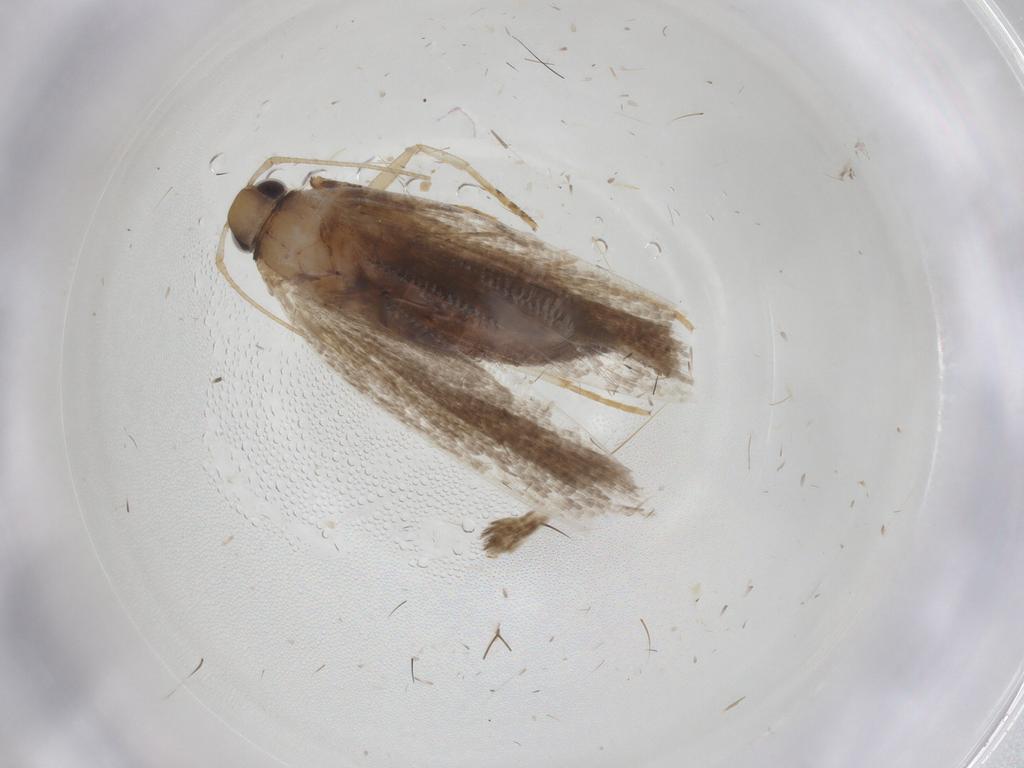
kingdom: Animalia
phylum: Arthropoda
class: Insecta
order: Lepidoptera
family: Gelechiidae
